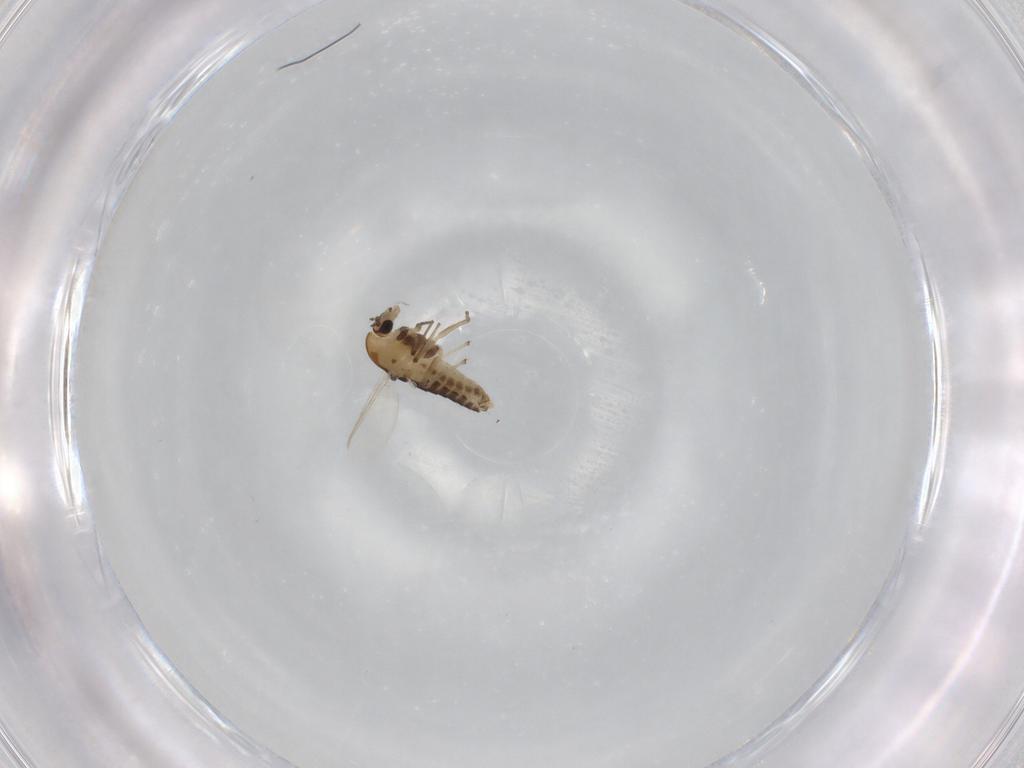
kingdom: Animalia
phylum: Arthropoda
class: Insecta
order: Diptera
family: Chironomidae
